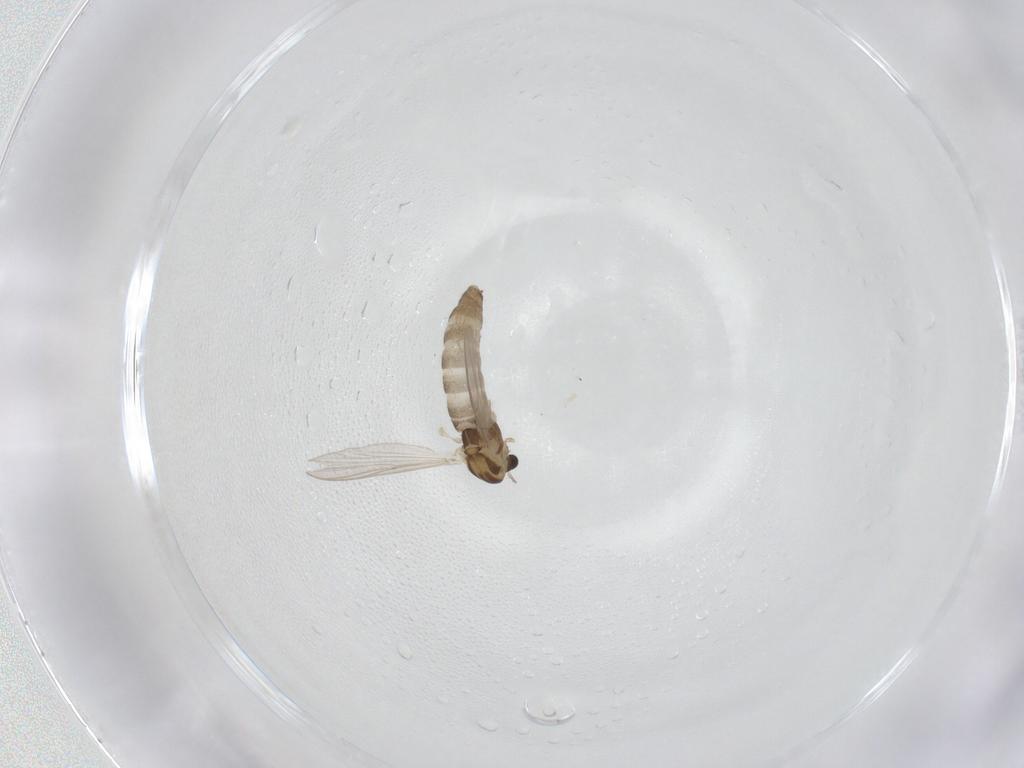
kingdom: Animalia
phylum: Arthropoda
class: Insecta
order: Diptera
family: Chironomidae
